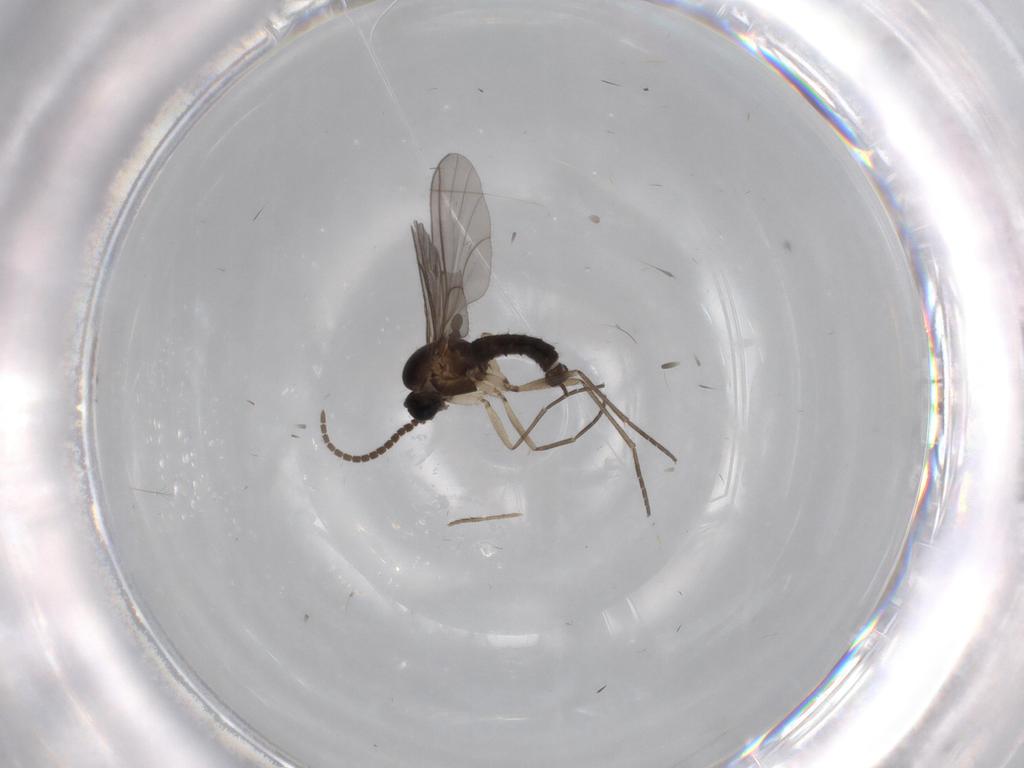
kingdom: Animalia
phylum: Arthropoda
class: Insecta
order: Diptera
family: Sciaridae
